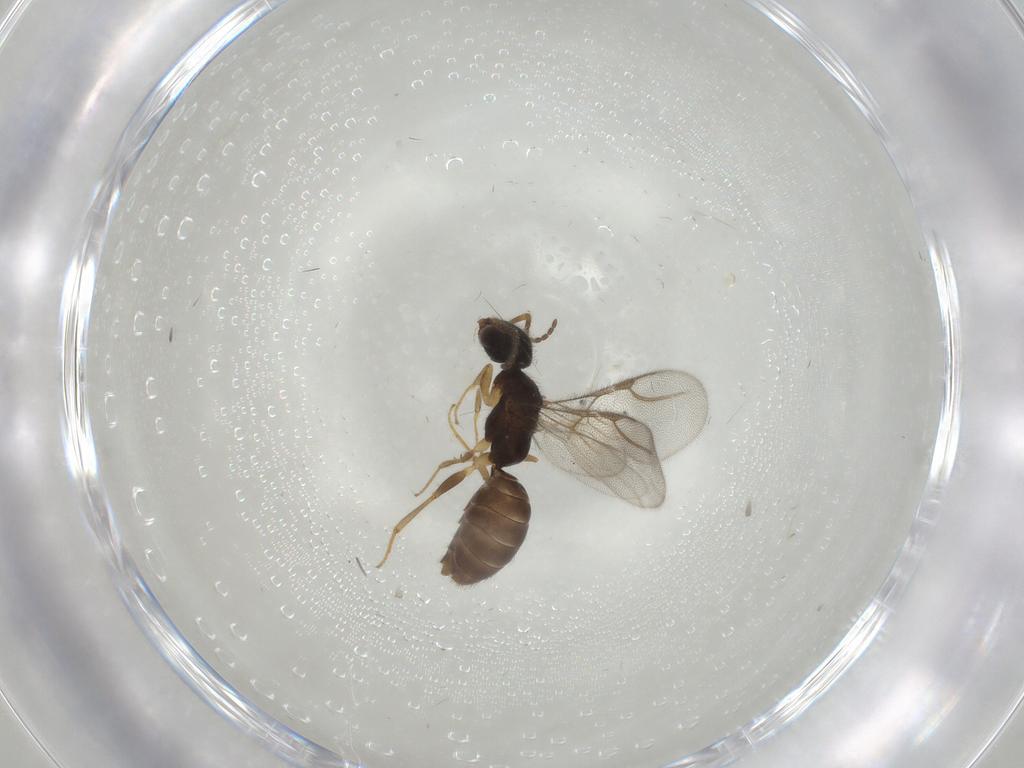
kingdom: Animalia
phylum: Arthropoda
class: Insecta
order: Hymenoptera
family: Bethylidae
